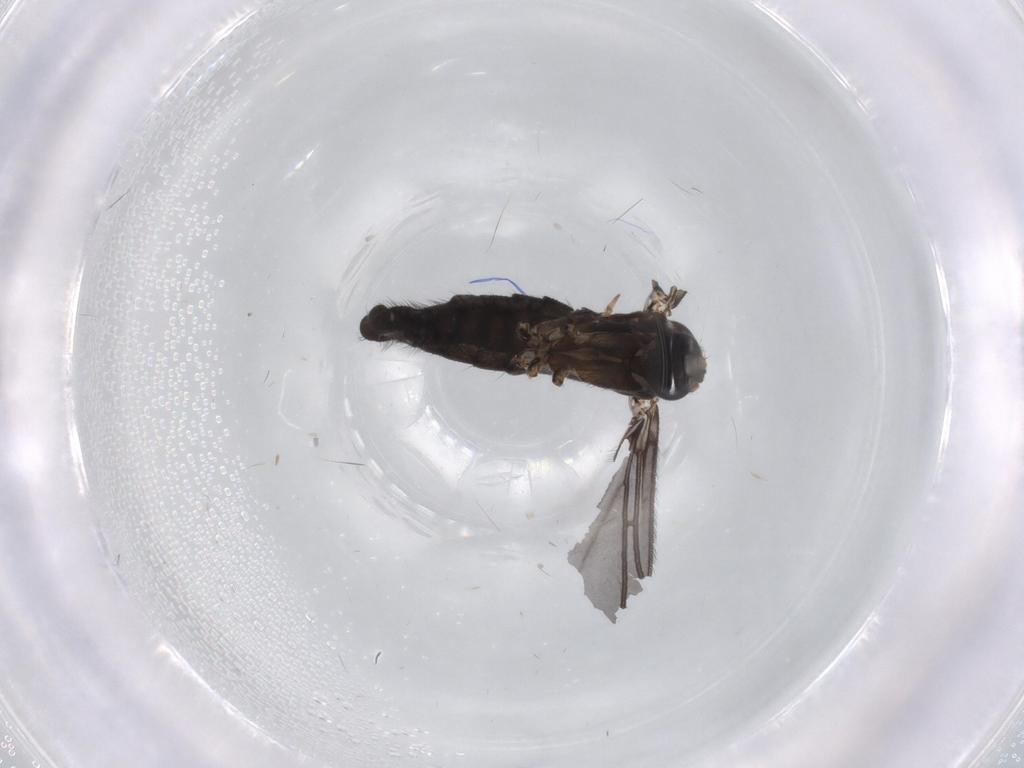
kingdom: Animalia
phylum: Arthropoda
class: Insecta
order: Diptera
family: Sciaridae
